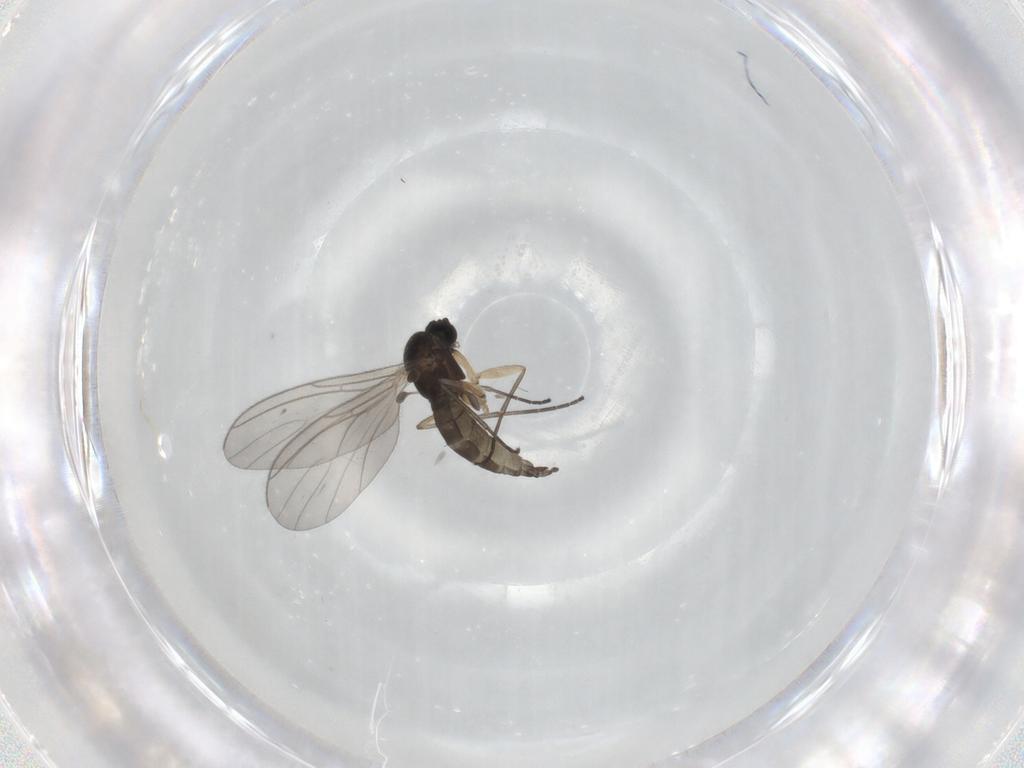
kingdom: Animalia
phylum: Arthropoda
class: Insecta
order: Diptera
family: Sciaridae
